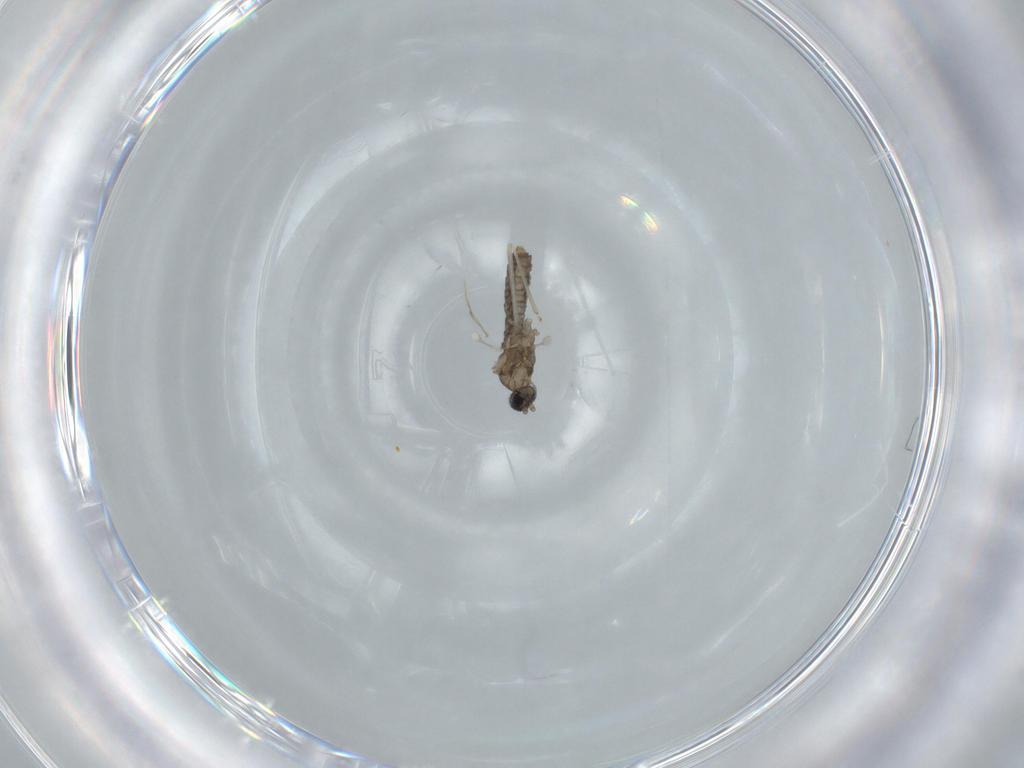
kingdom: Animalia
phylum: Arthropoda
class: Insecta
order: Diptera
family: Cecidomyiidae
